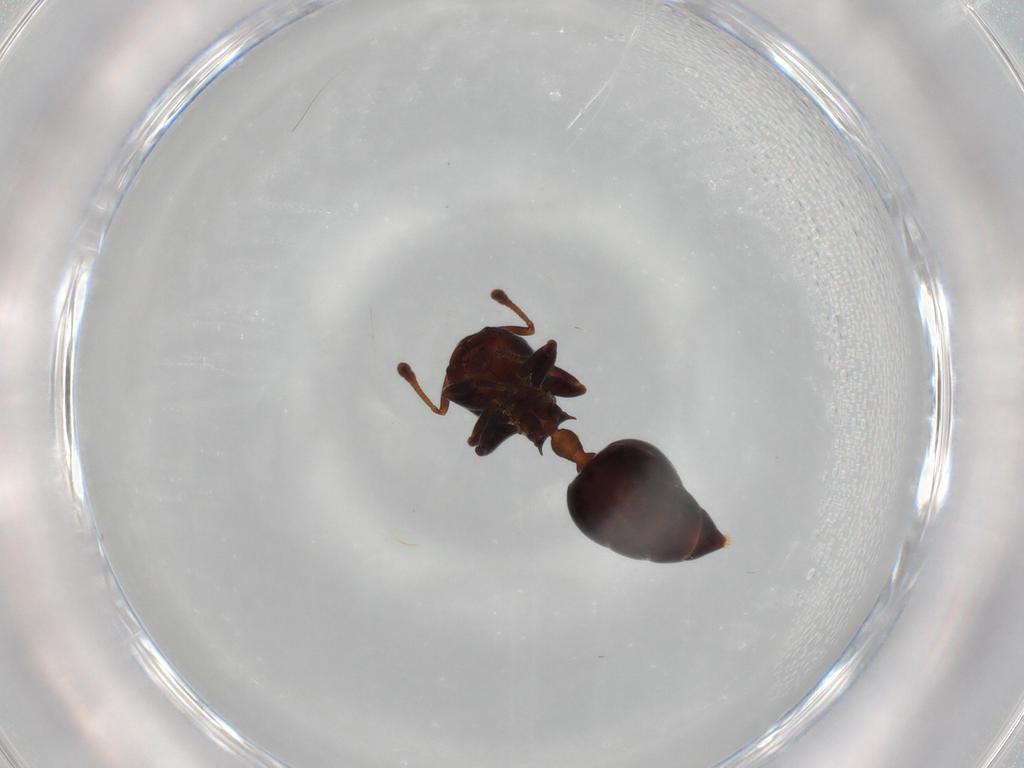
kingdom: Animalia
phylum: Arthropoda
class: Insecta
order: Hymenoptera
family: Formicidae
